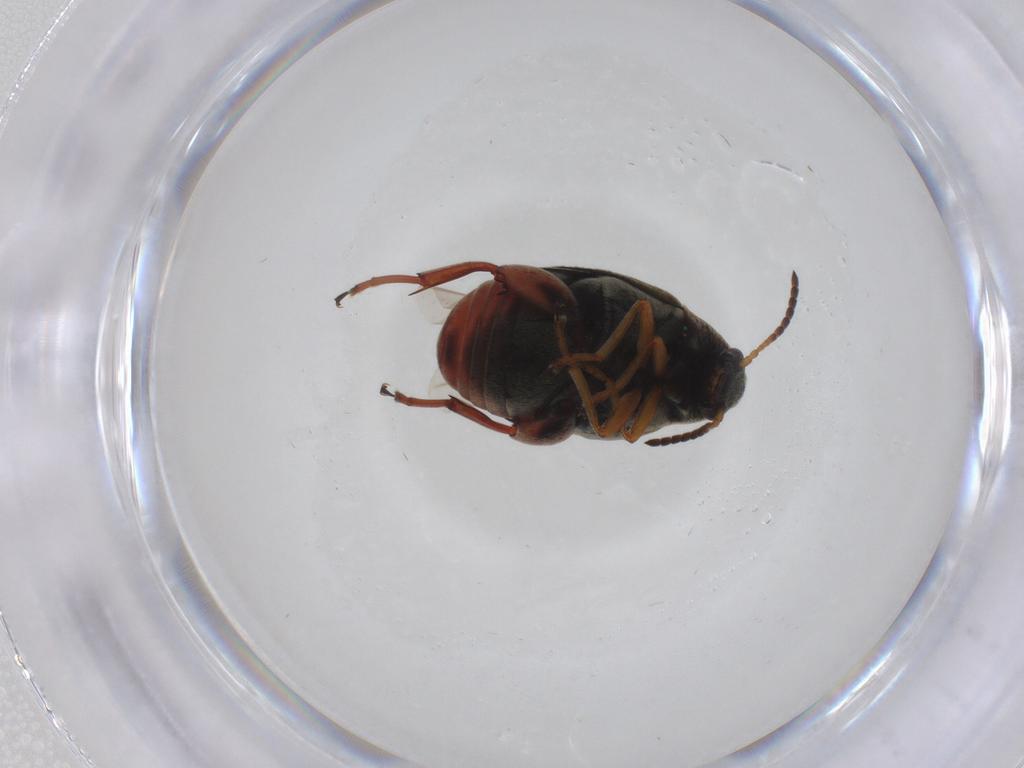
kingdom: Animalia
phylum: Arthropoda
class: Insecta
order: Coleoptera
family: Chrysomelidae
